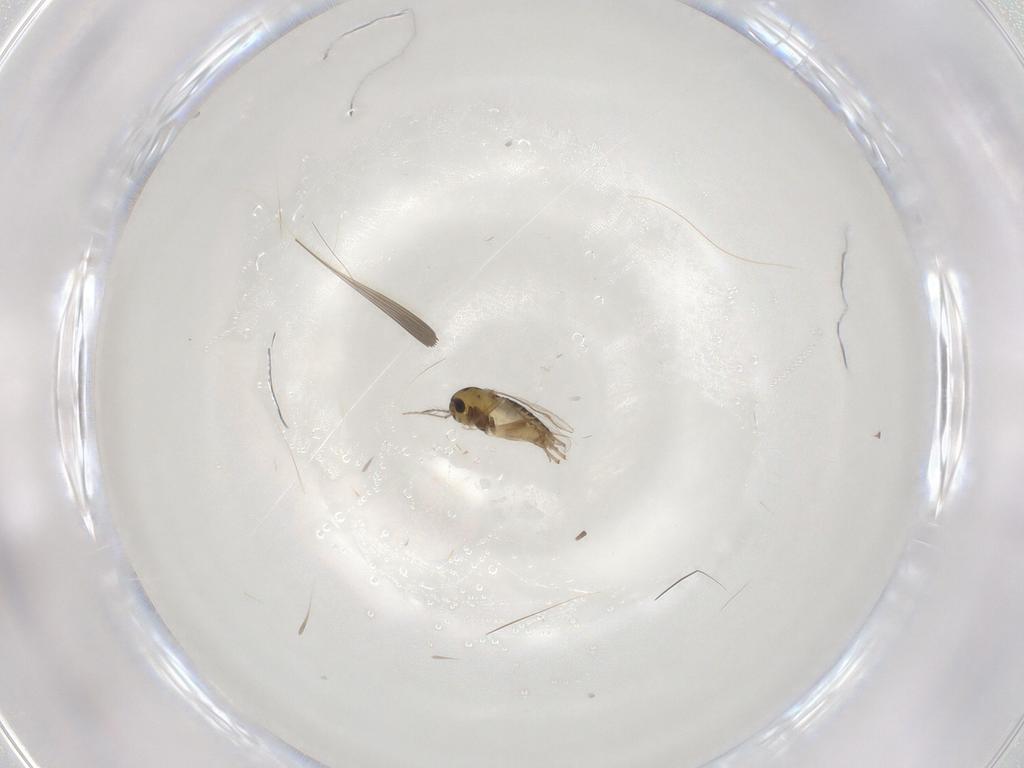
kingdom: Animalia
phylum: Arthropoda
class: Insecta
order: Diptera
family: Chironomidae
